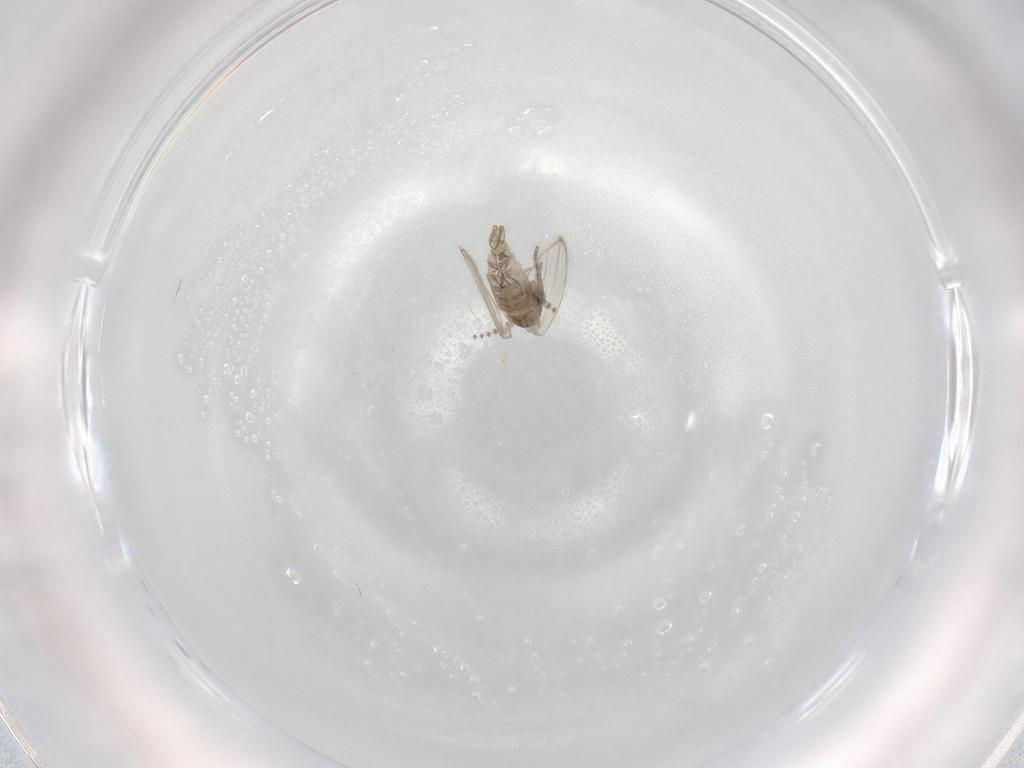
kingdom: Animalia
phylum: Arthropoda
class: Insecta
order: Diptera
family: Psychodidae
